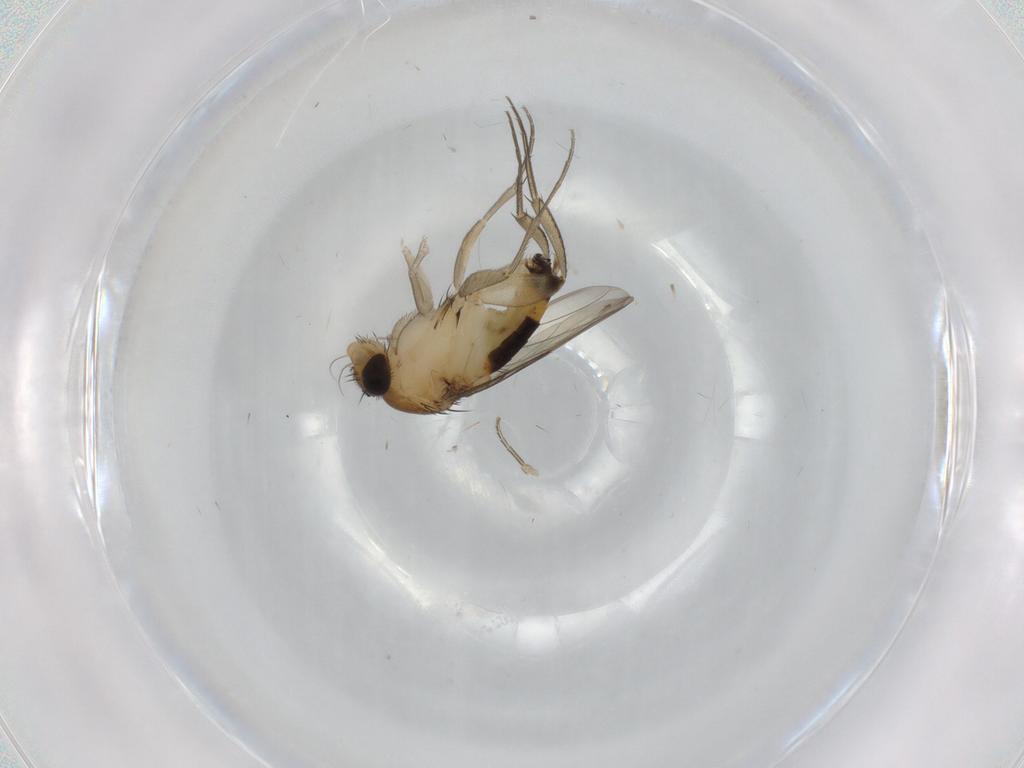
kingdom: Animalia
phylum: Arthropoda
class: Insecta
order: Diptera
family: Phoridae
